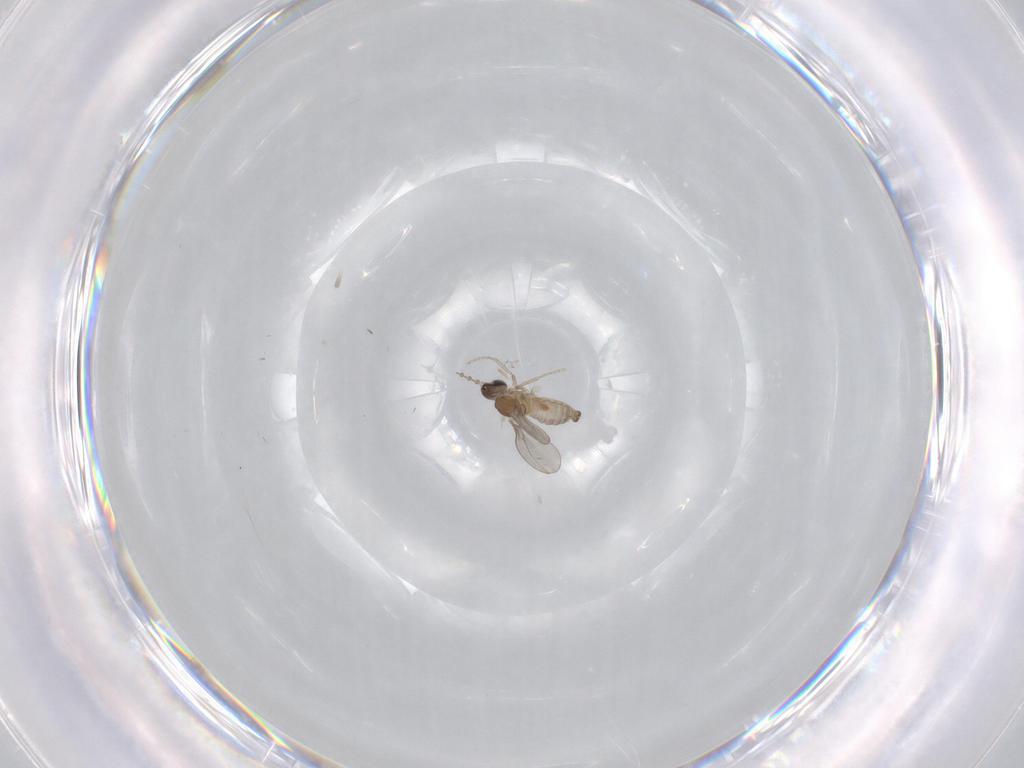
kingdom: Animalia
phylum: Arthropoda
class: Insecta
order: Diptera
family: Cecidomyiidae
